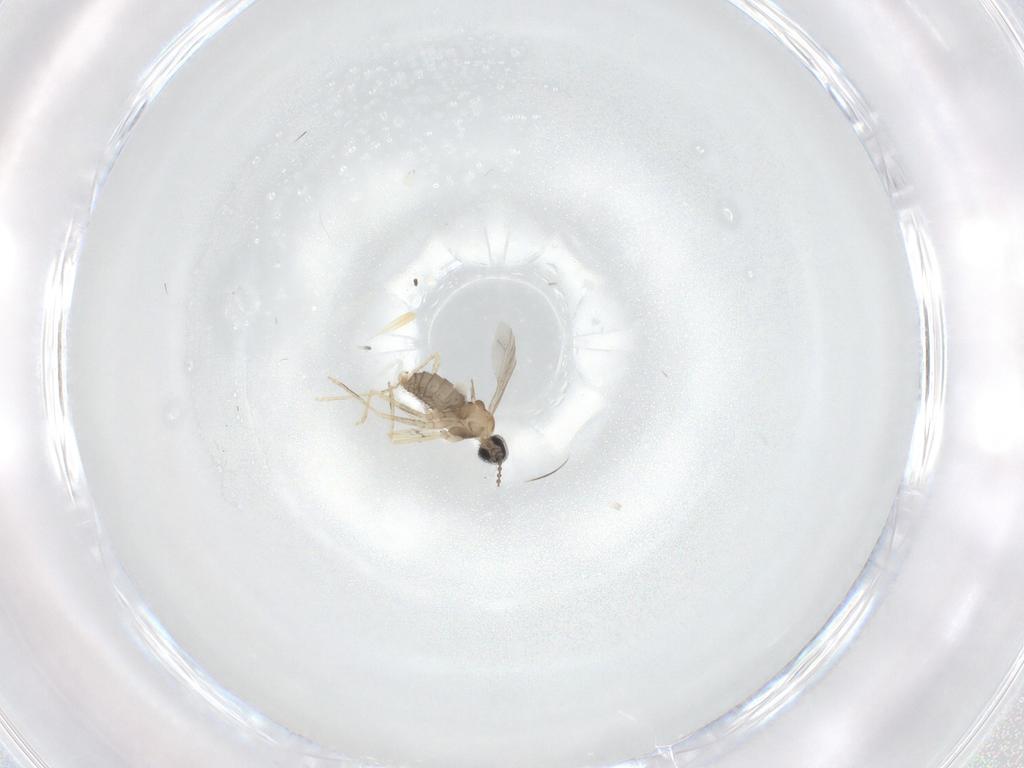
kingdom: Animalia
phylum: Arthropoda
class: Insecta
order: Diptera
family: Cecidomyiidae
